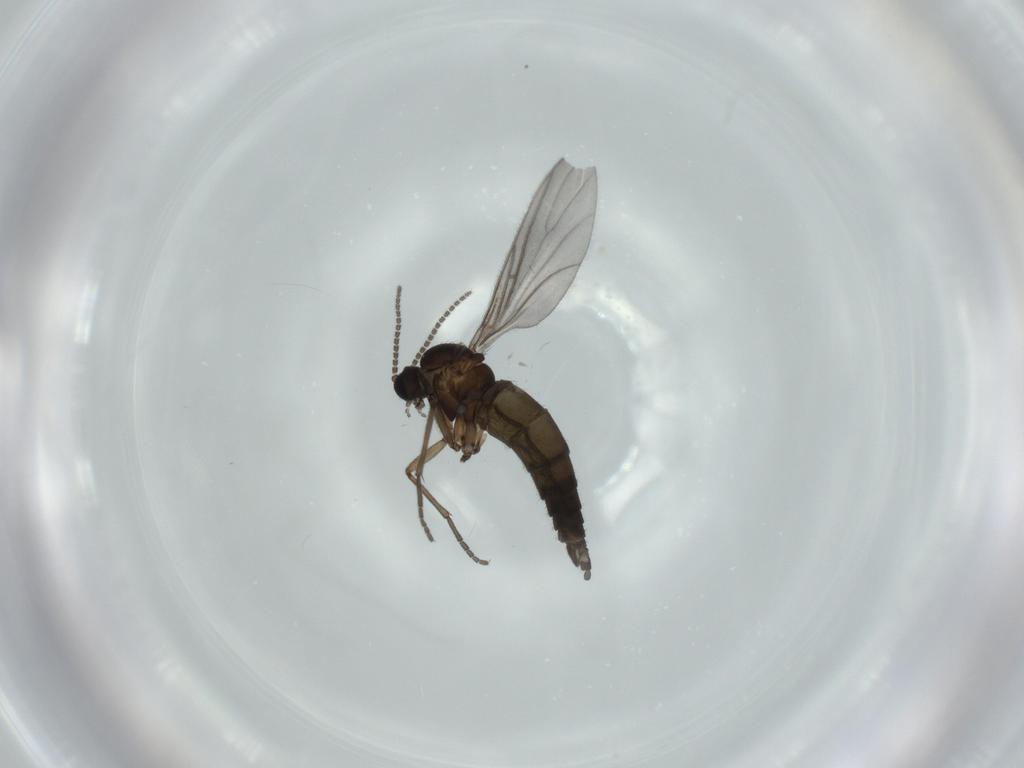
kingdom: Animalia
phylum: Arthropoda
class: Insecta
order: Diptera
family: Sciaridae
